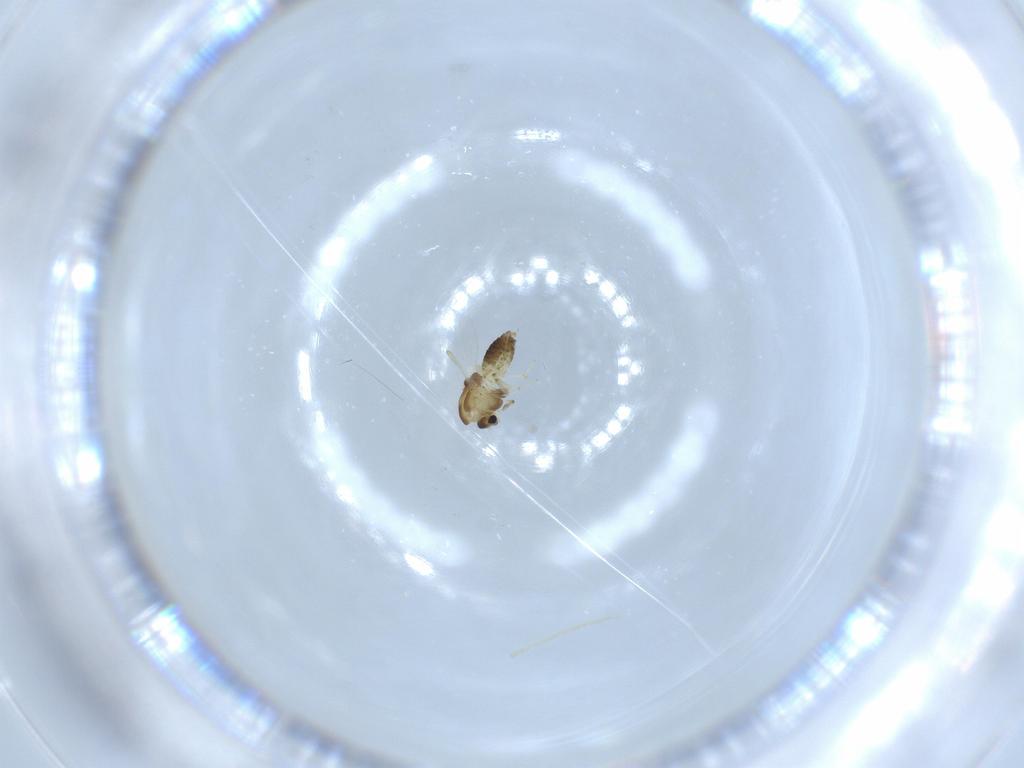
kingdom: Animalia
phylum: Arthropoda
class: Insecta
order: Diptera
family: Chironomidae
